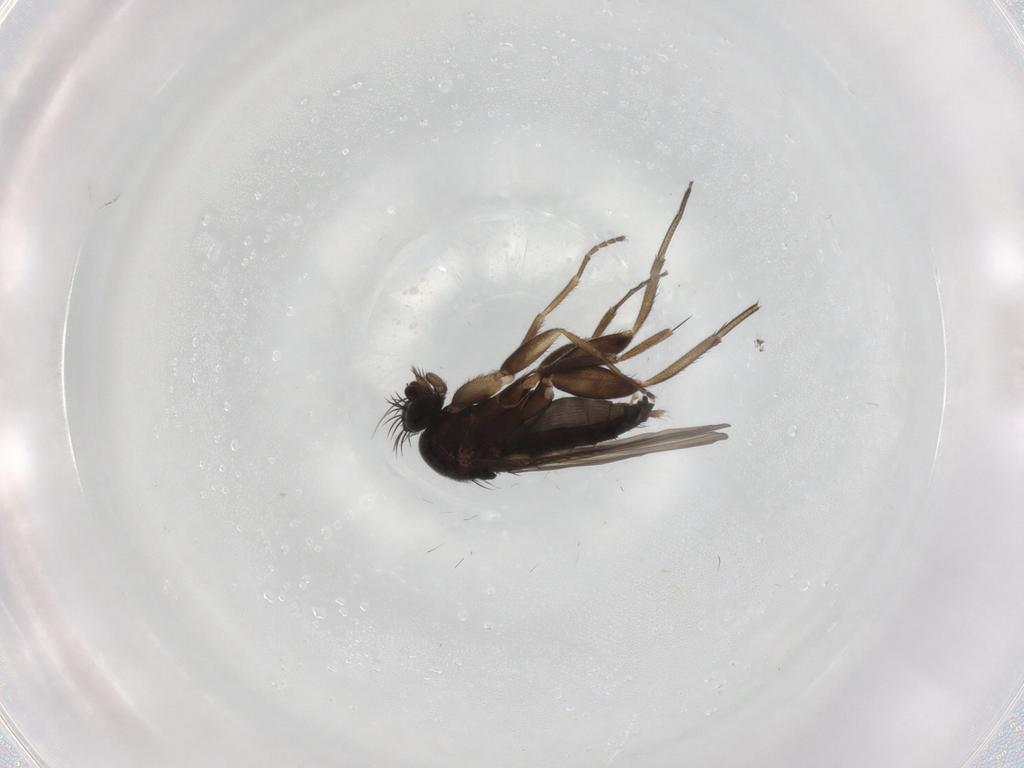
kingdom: Animalia
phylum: Arthropoda
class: Insecta
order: Diptera
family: Phoridae
